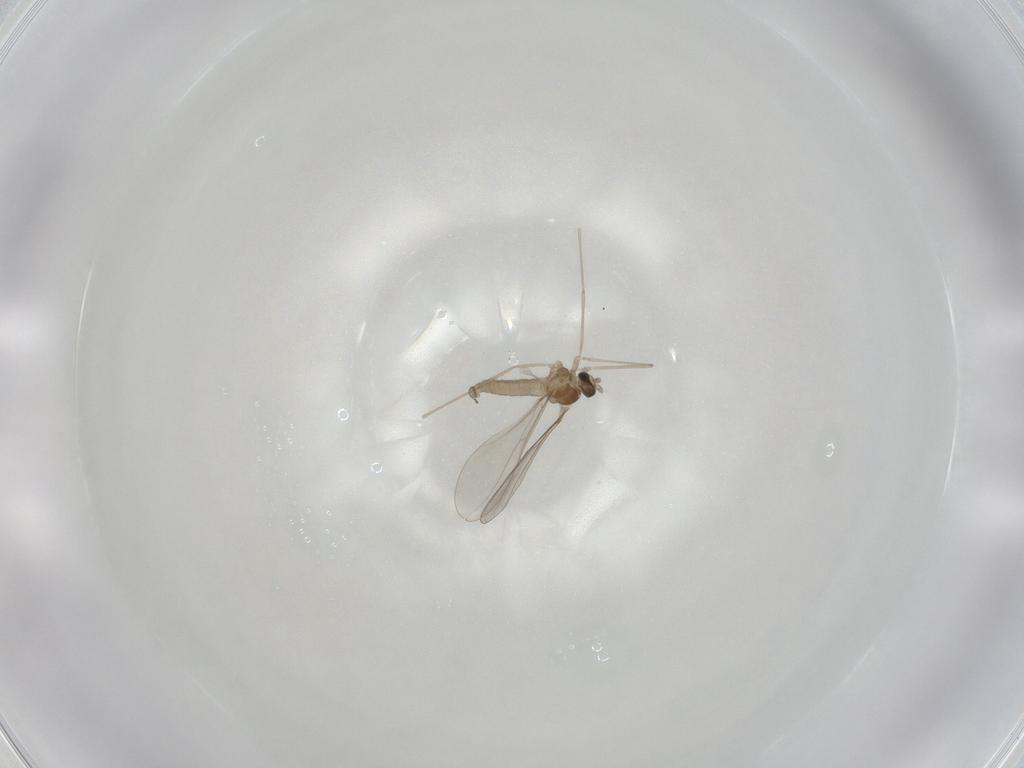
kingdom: Animalia
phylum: Arthropoda
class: Insecta
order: Diptera
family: Cecidomyiidae
